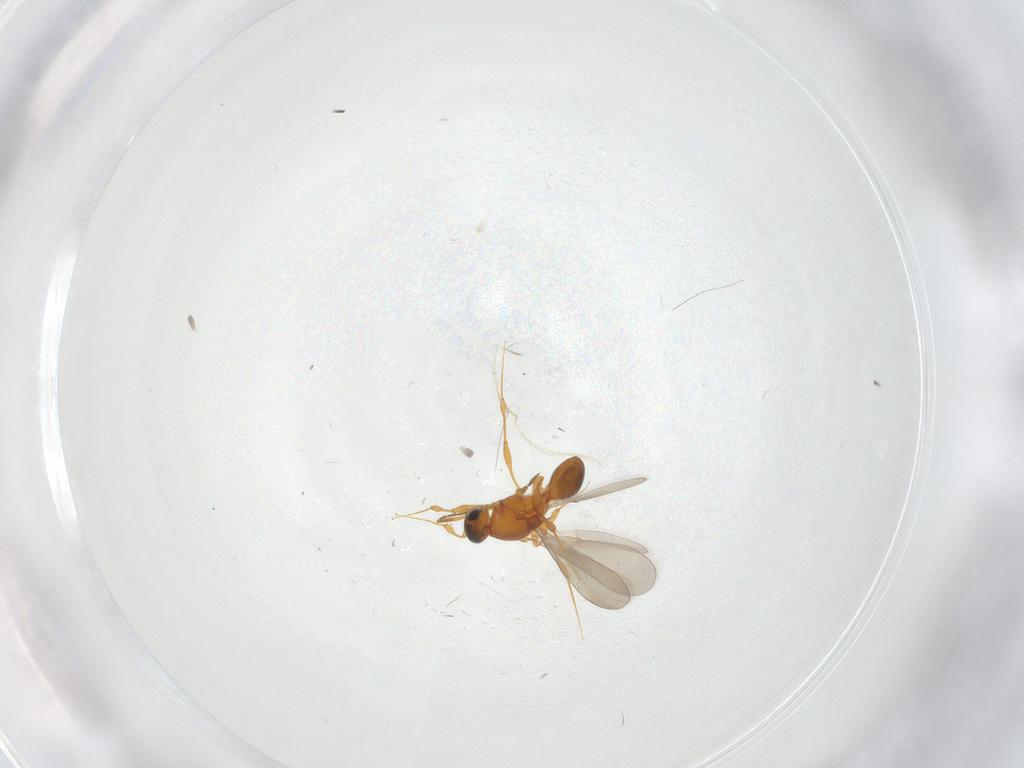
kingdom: Animalia
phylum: Arthropoda
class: Insecta
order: Hymenoptera
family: Platygastridae
